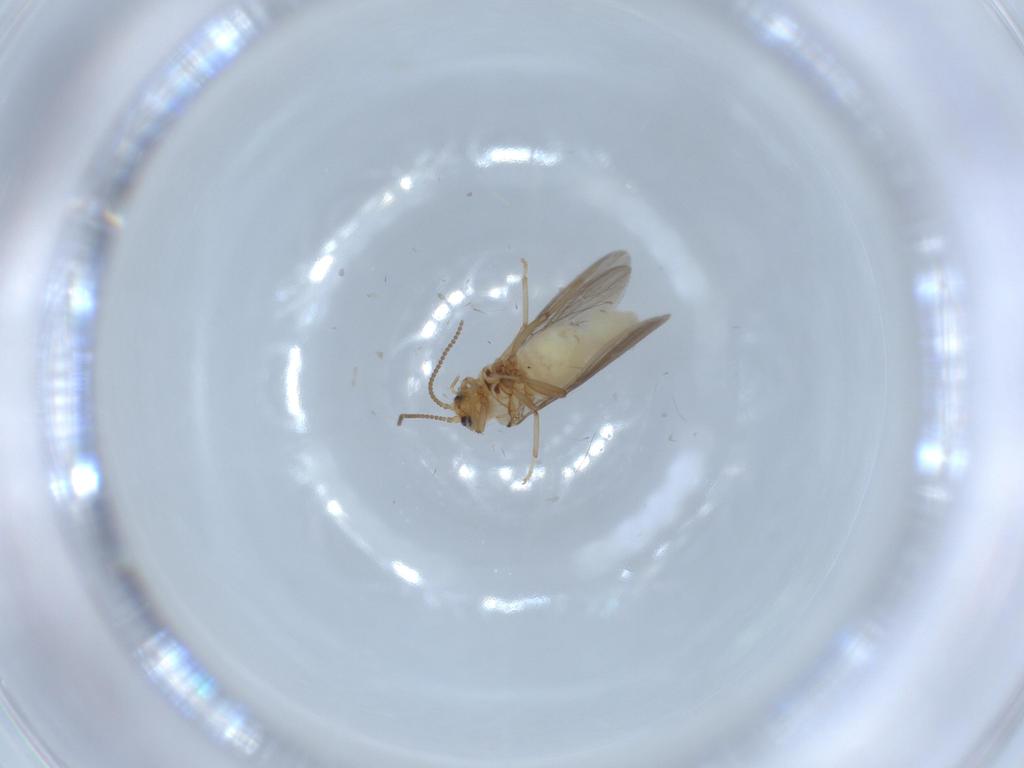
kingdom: Animalia
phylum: Arthropoda
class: Insecta
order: Neuroptera
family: Coniopterygidae
